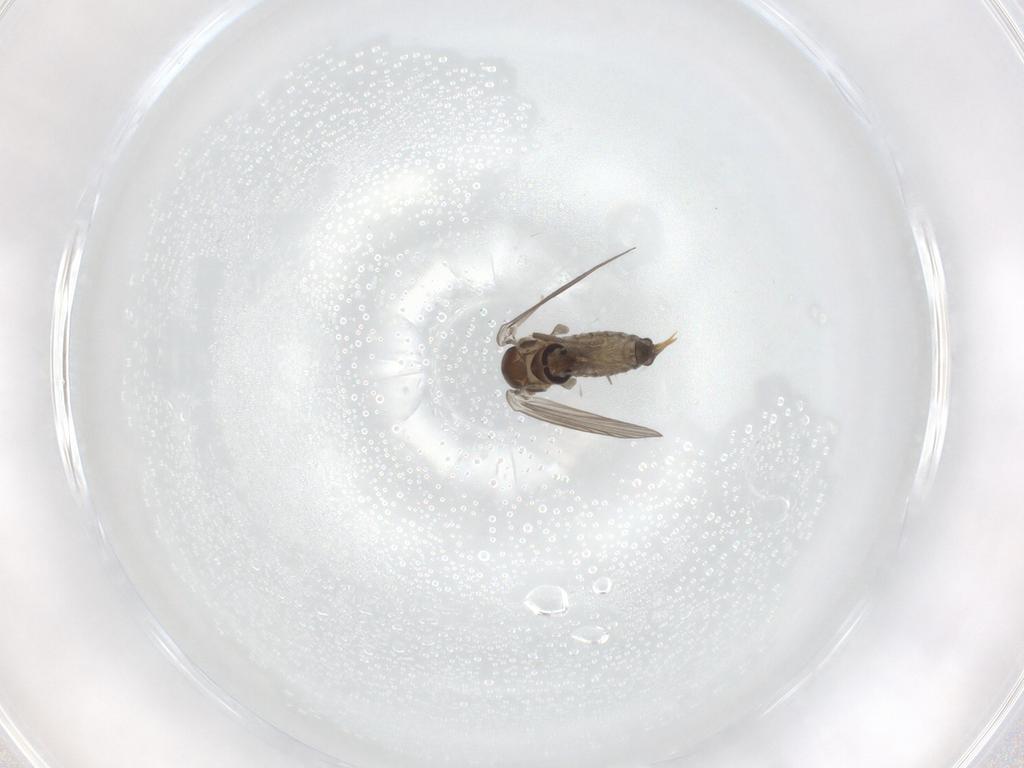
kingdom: Animalia
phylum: Arthropoda
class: Insecta
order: Diptera
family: Psychodidae
